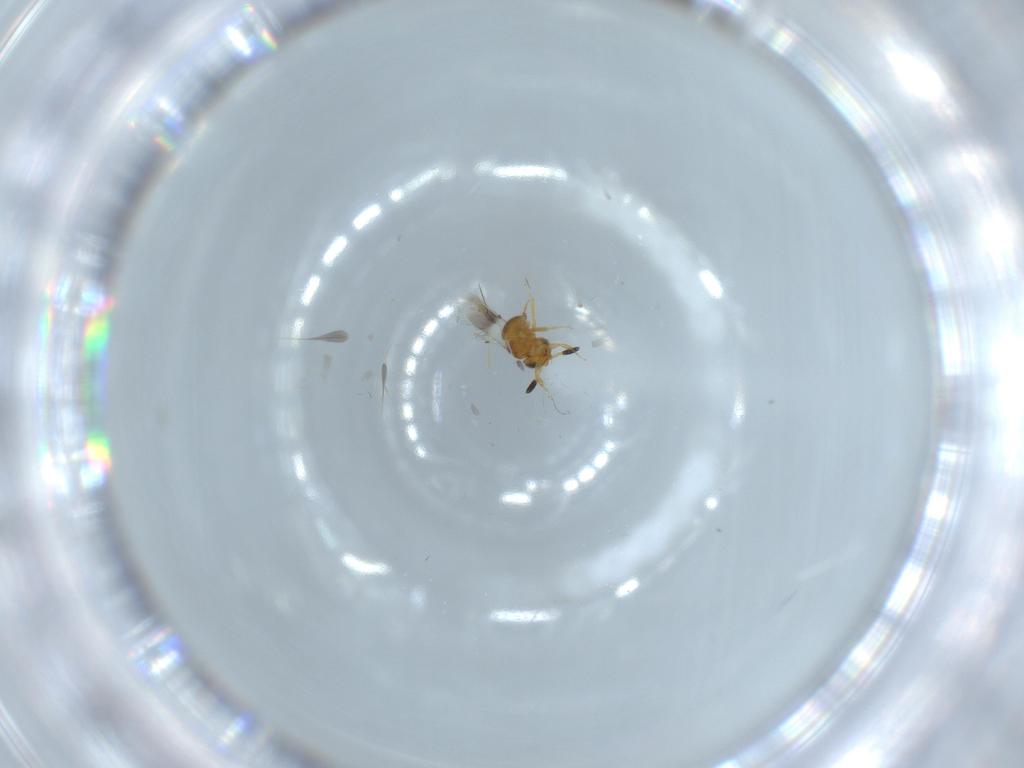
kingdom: Animalia
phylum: Arthropoda
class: Insecta
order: Hymenoptera
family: Scelionidae
